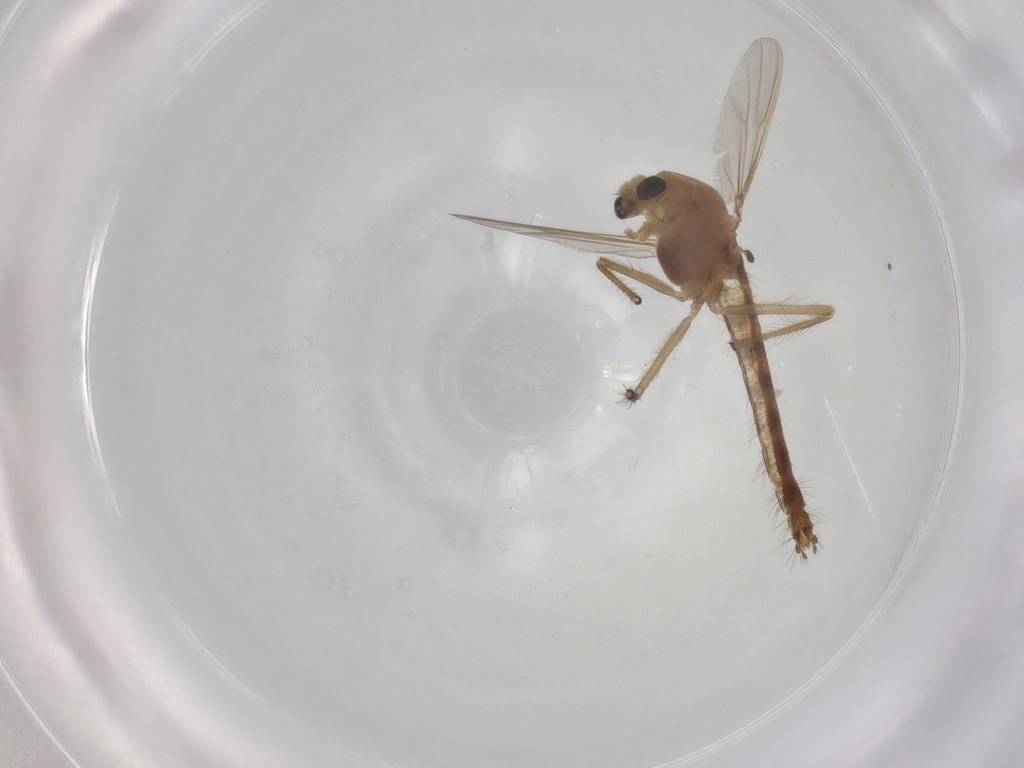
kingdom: Animalia
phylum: Arthropoda
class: Insecta
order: Diptera
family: Chironomidae
